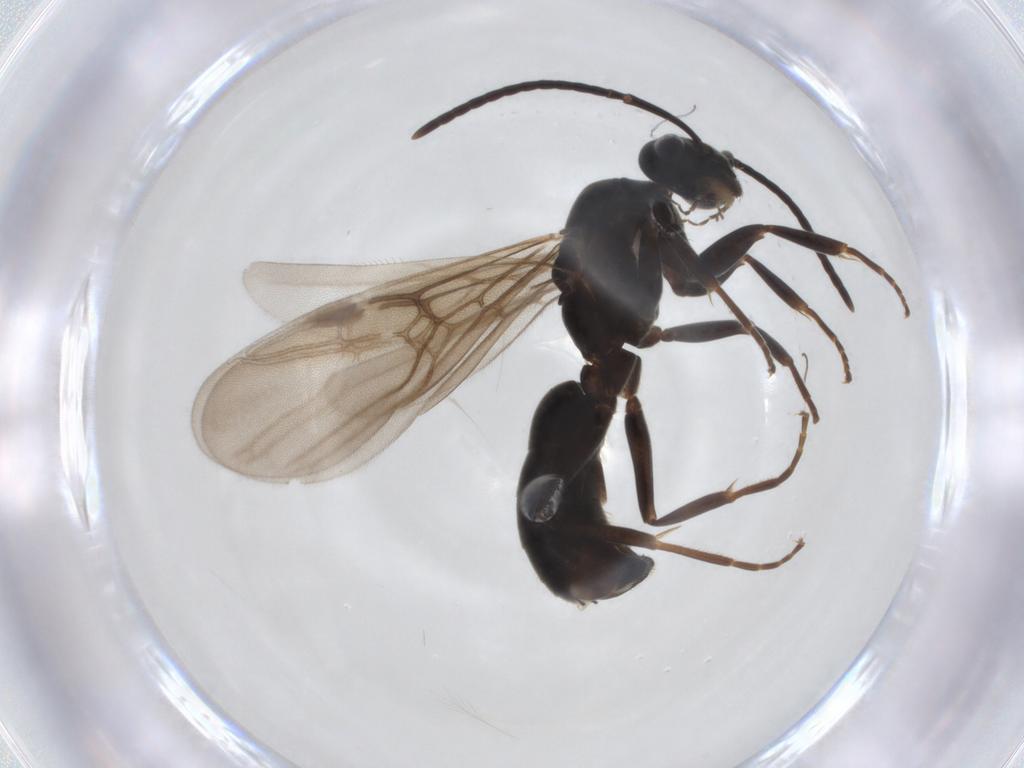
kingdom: Animalia
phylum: Arthropoda
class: Insecta
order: Hymenoptera
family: Formicidae
